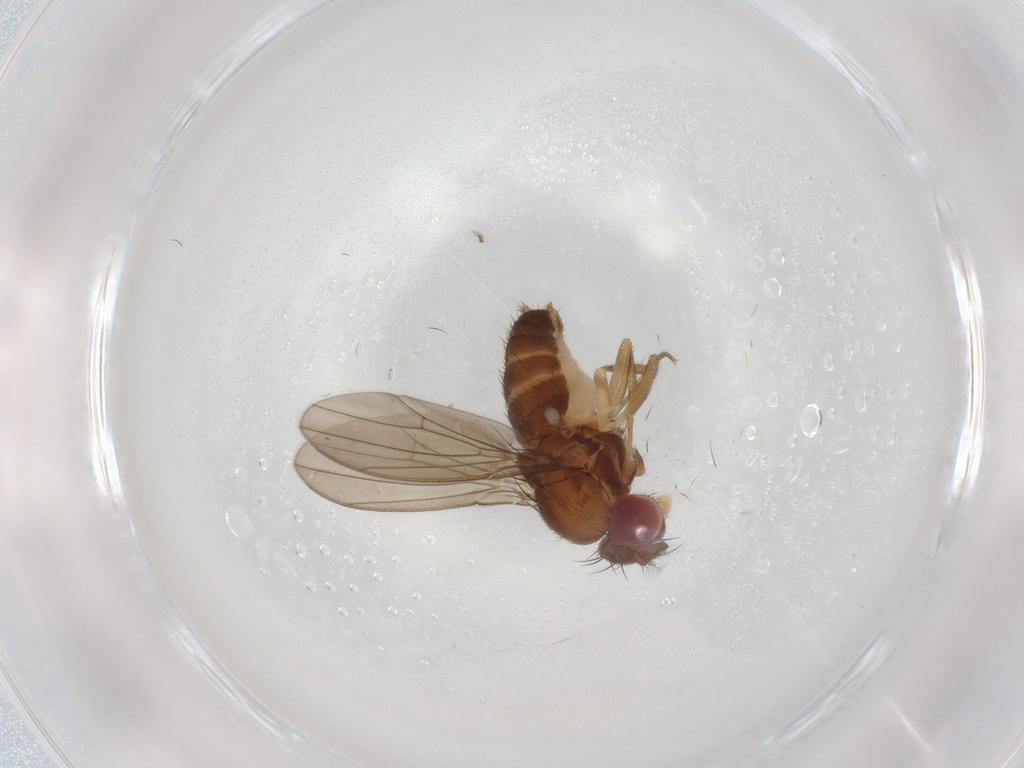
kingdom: Animalia
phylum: Arthropoda
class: Insecta
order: Diptera
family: Drosophilidae
